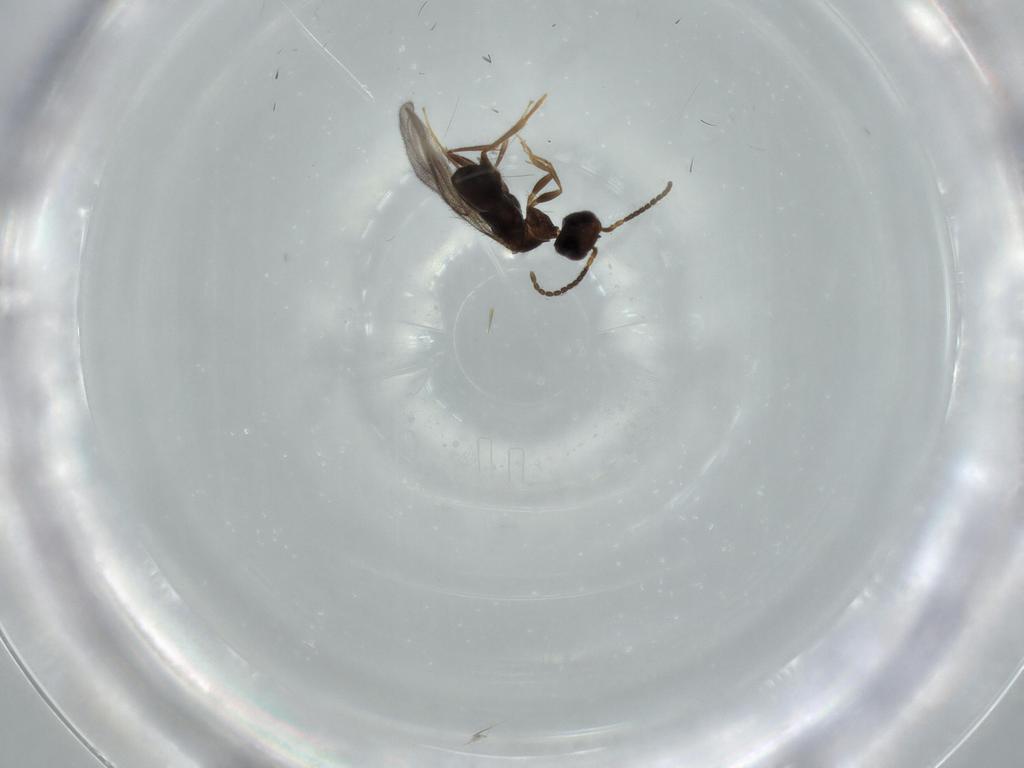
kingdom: Animalia
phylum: Arthropoda
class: Insecta
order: Hymenoptera
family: Bethylidae
